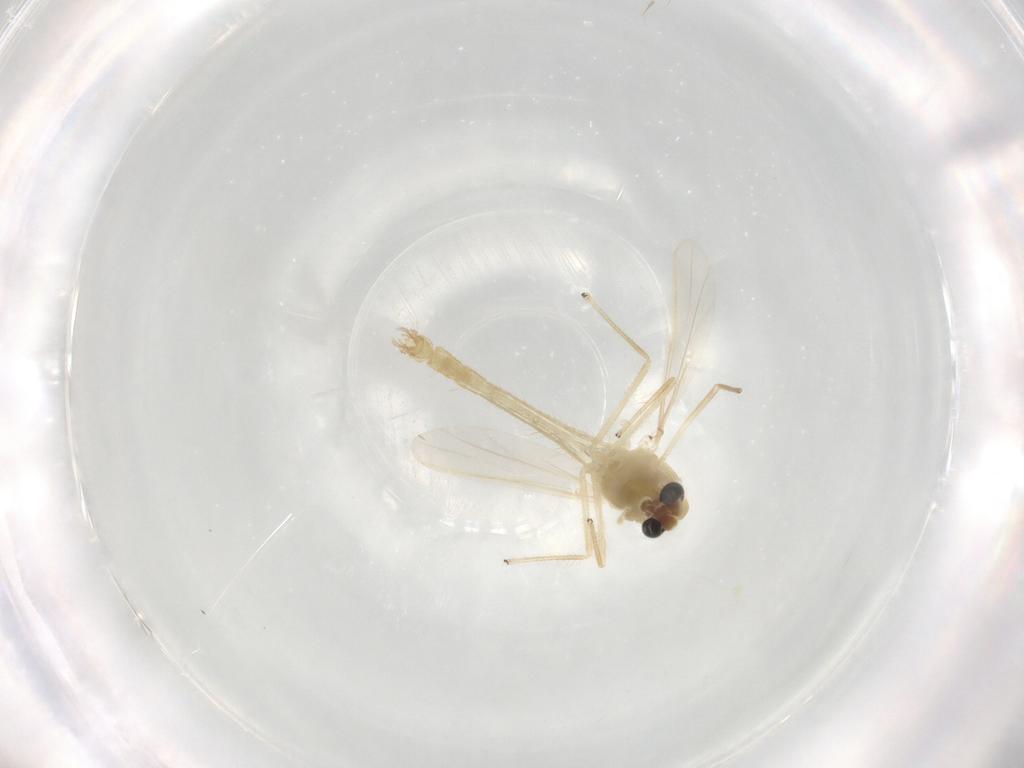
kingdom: Animalia
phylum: Arthropoda
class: Insecta
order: Diptera
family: Chironomidae
